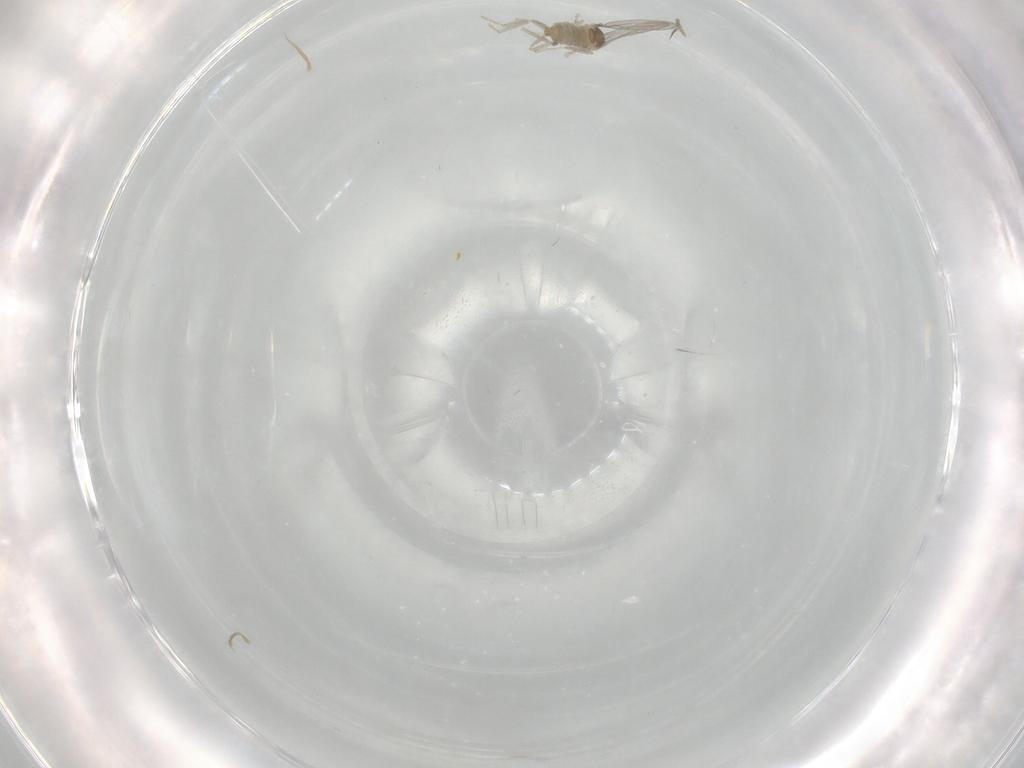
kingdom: Animalia
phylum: Arthropoda
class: Insecta
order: Diptera
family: Cecidomyiidae
